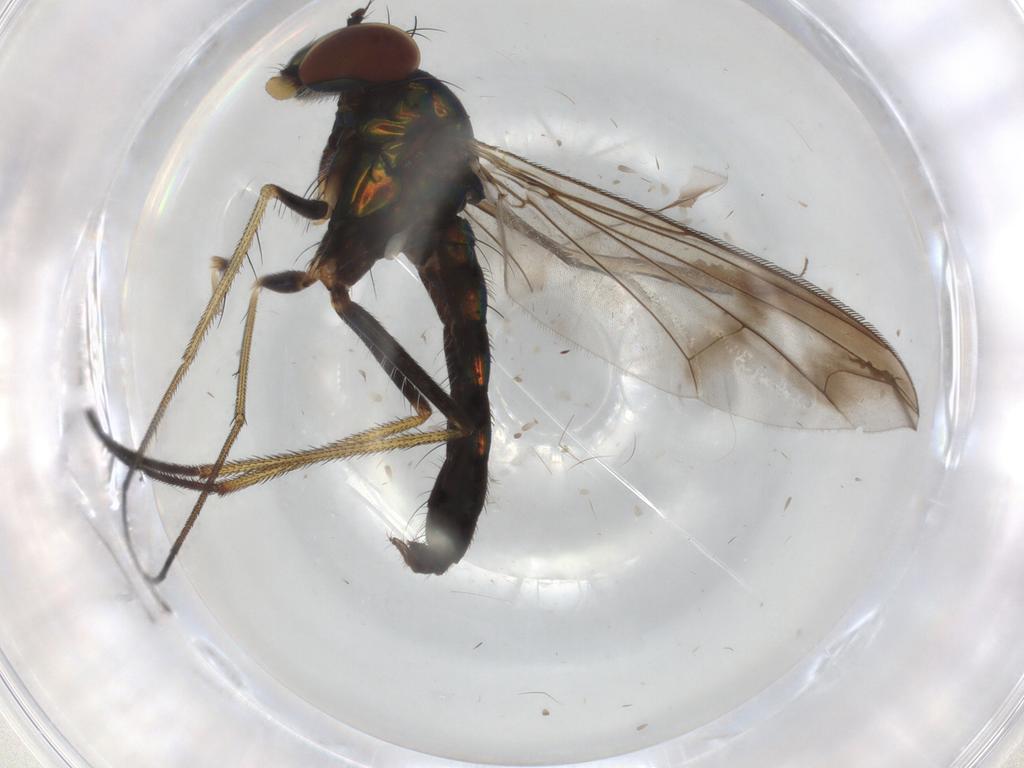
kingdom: Animalia
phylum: Arthropoda
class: Insecta
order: Diptera
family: Dolichopodidae
